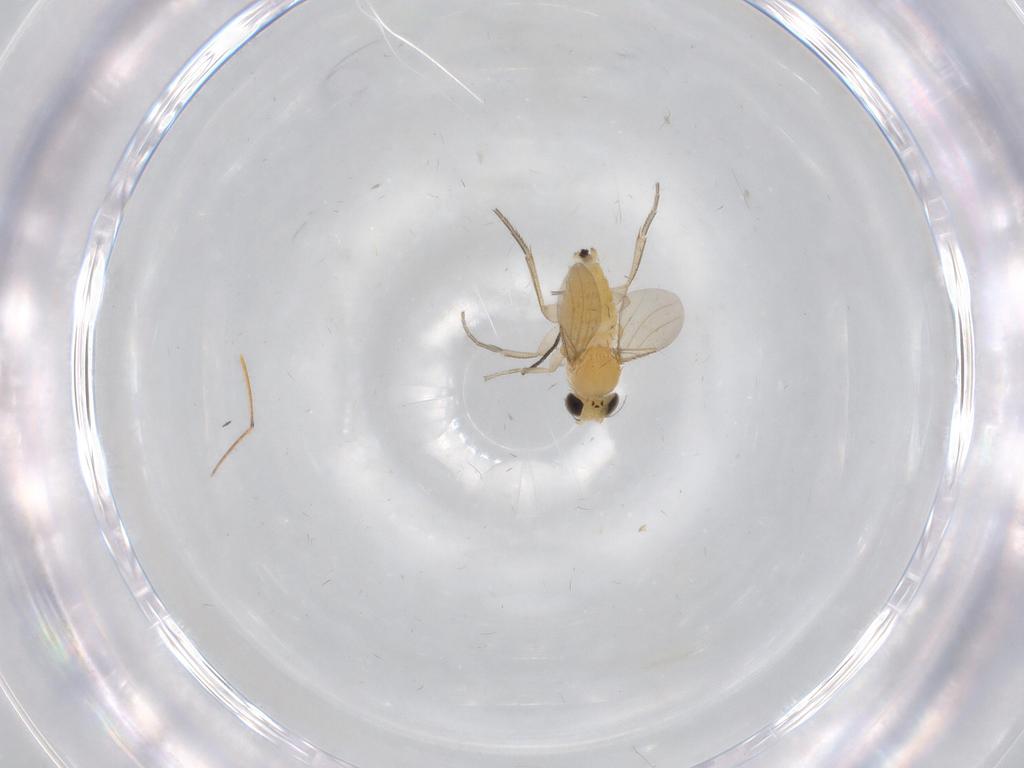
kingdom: Animalia
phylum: Arthropoda
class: Insecta
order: Diptera
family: Phoridae
